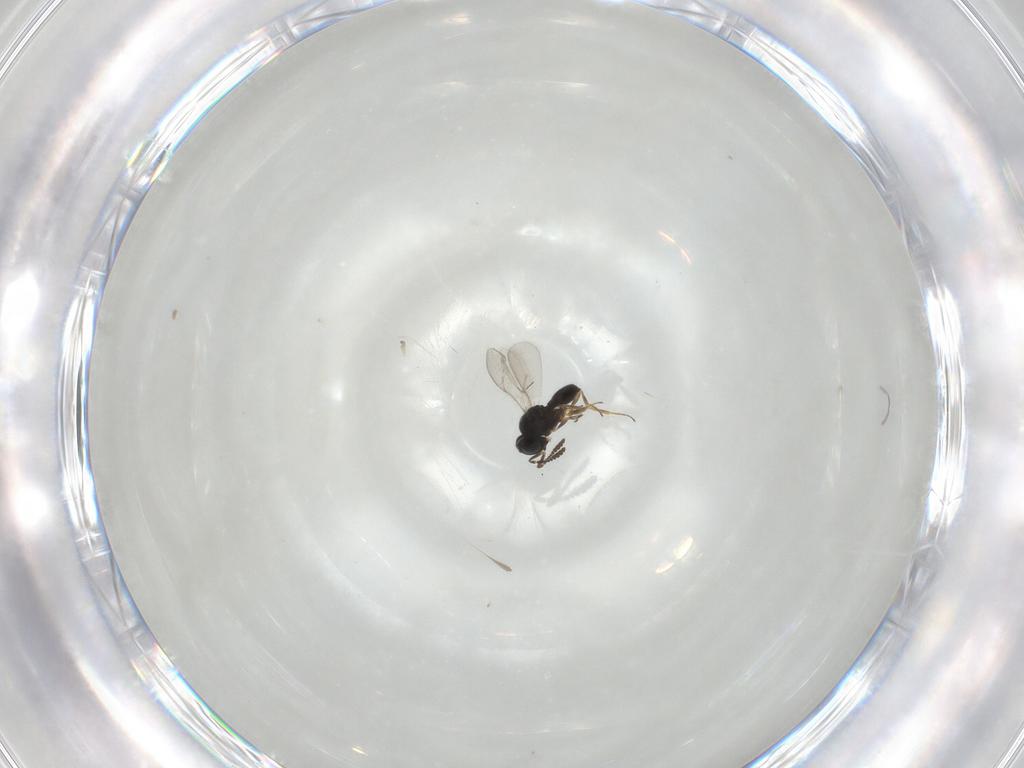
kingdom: Animalia
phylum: Arthropoda
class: Insecta
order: Hymenoptera
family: Scelionidae
